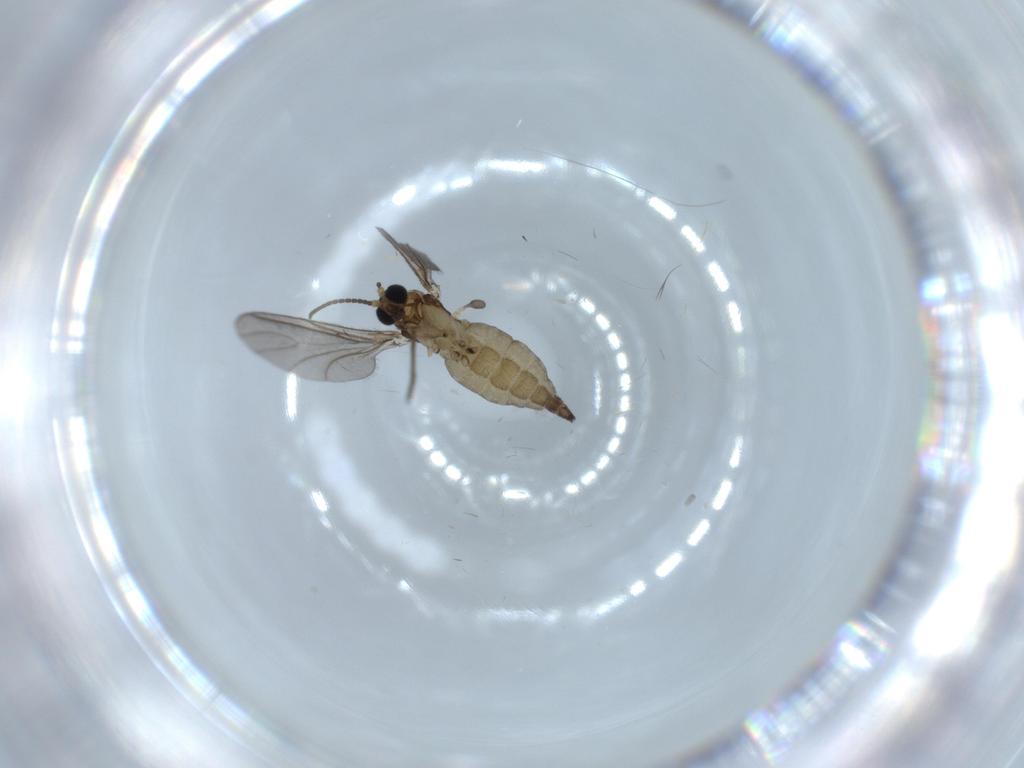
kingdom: Animalia
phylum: Arthropoda
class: Insecta
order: Diptera
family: Sciaridae
